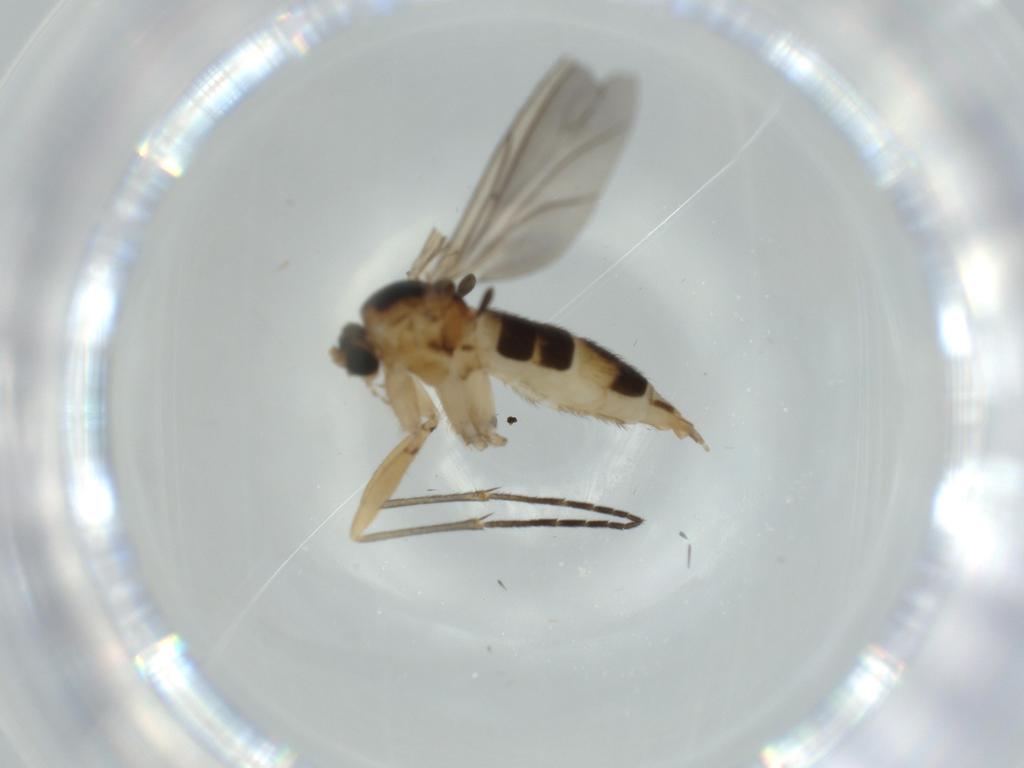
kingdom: Animalia
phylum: Arthropoda
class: Insecta
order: Diptera
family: Sciaridae
